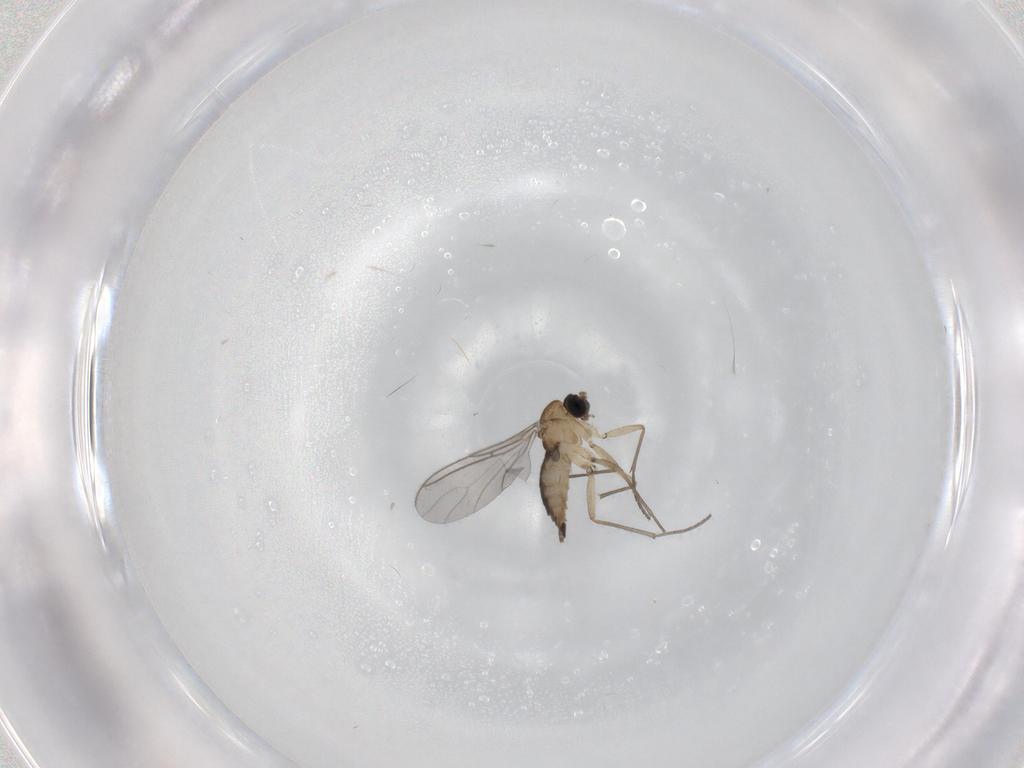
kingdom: Animalia
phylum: Arthropoda
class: Insecta
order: Diptera
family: Sciaridae
